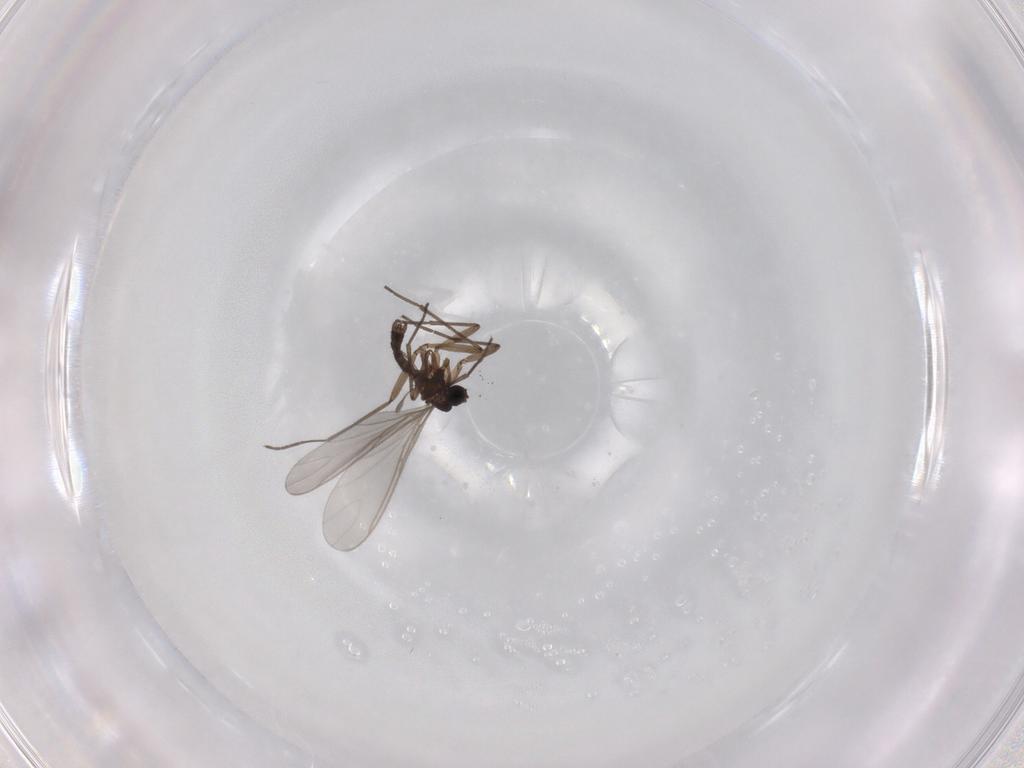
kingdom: Animalia
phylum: Arthropoda
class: Insecta
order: Diptera
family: Sciaridae
